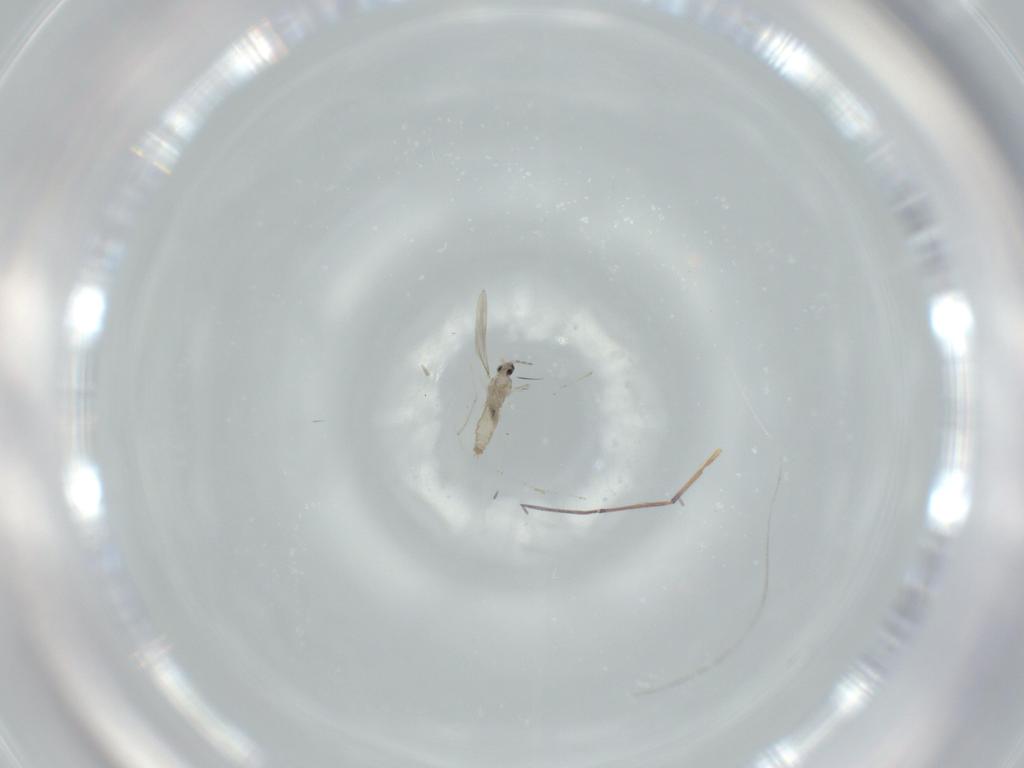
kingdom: Animalia
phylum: Arthropoda
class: Insecta
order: Diptera
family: Cecidomyiidae
